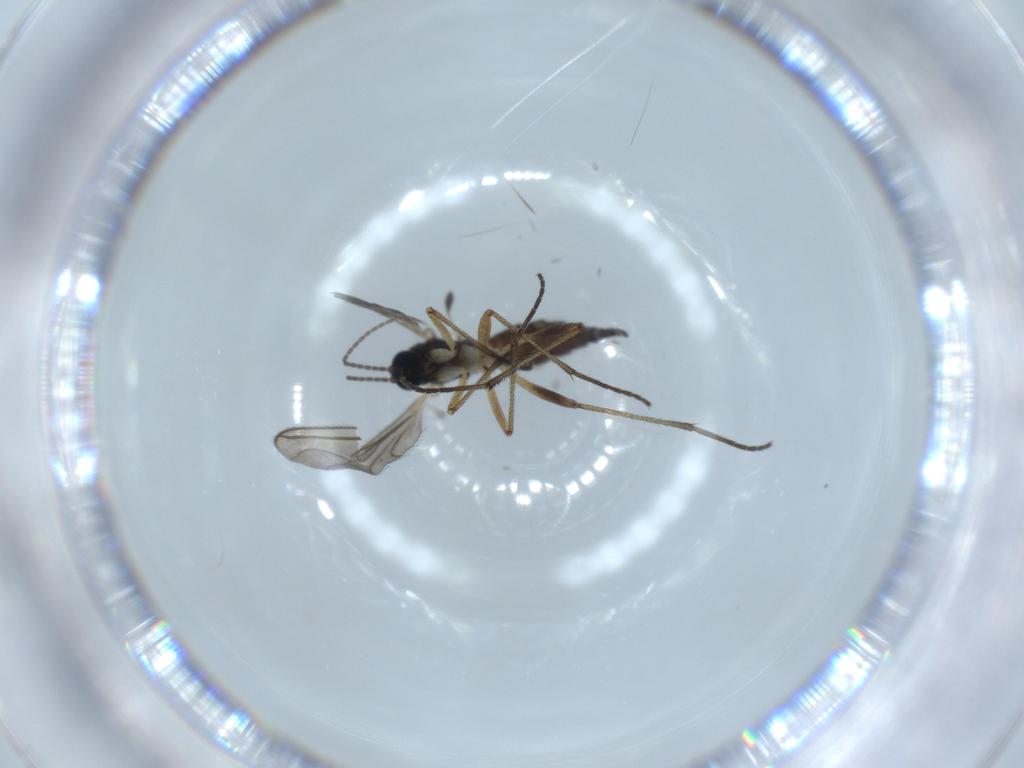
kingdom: Animalia
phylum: Arthropoda
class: Insecta
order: Diptera
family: Sciaridae
